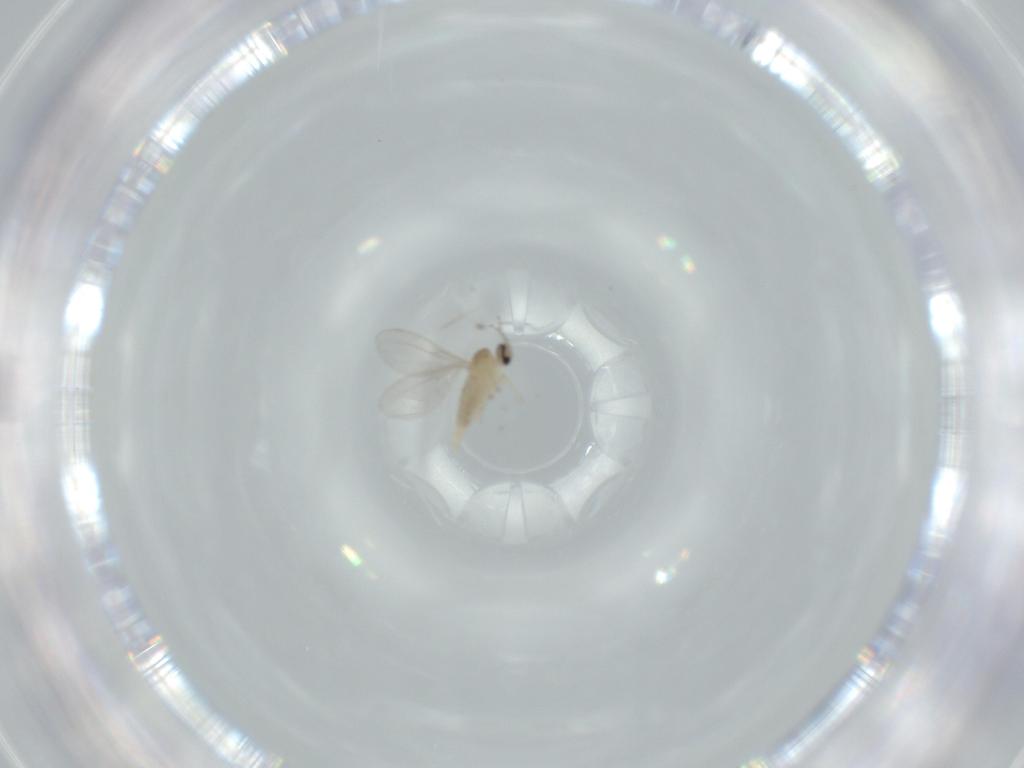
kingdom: Animalia
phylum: Arthropoda
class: Insecta
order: Diptera
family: Cecidomyiidae
